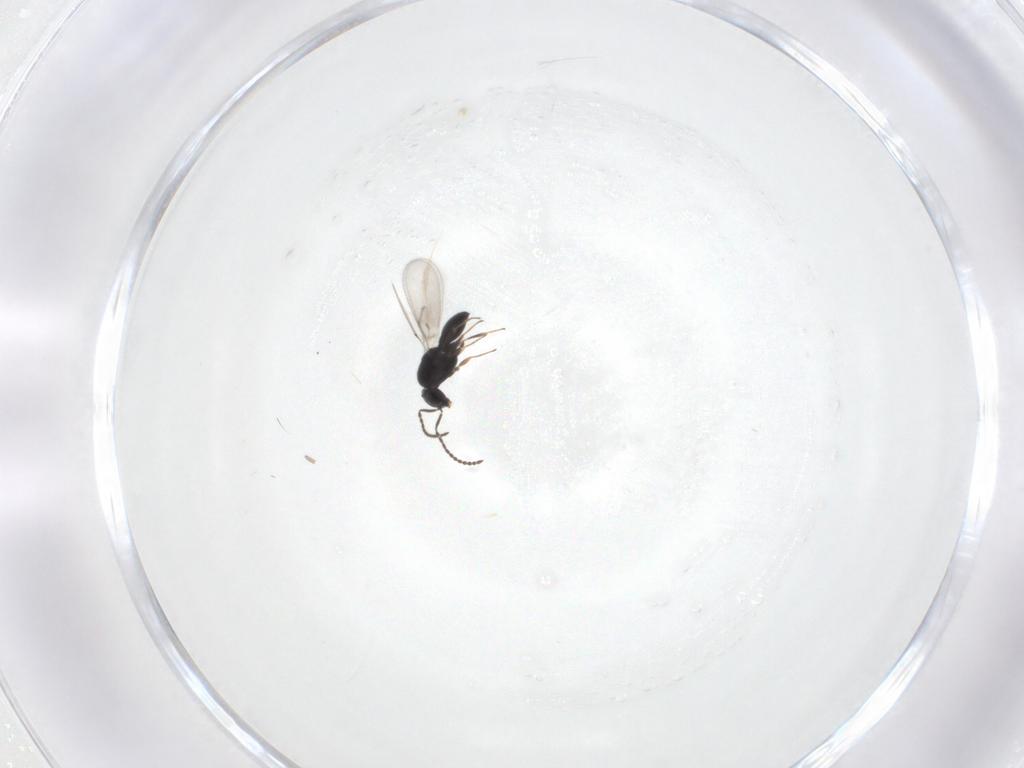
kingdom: Animalia
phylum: Arthropoda
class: Insecta
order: Hymenoptera
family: Scelionidae
